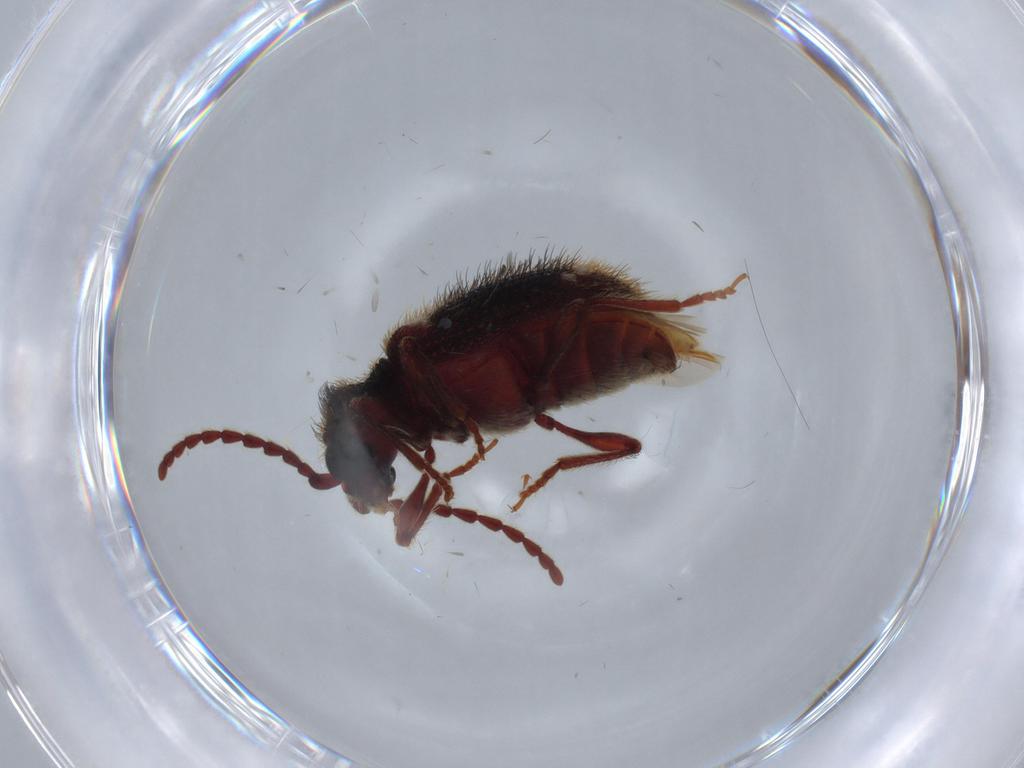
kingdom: Animalia
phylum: Arthropoda
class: Insecta
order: Coleoptera
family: Ptinidae
